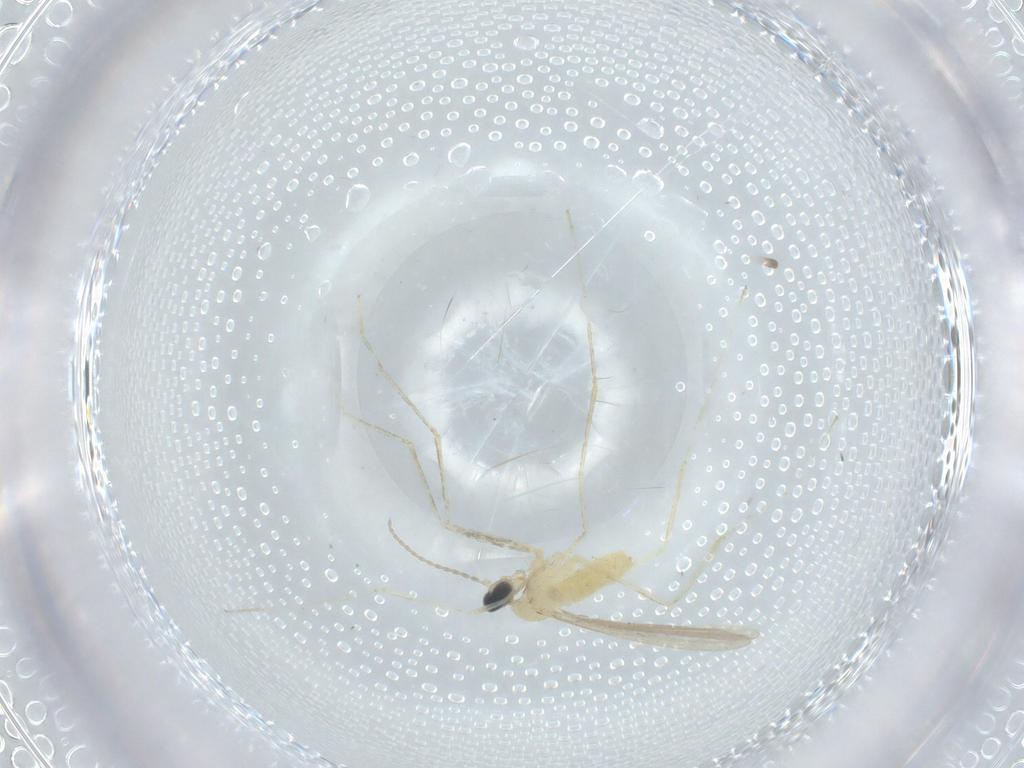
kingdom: Animalia
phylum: Arthropoda
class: Insecta
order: Diptera
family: Cecidomyiidae
